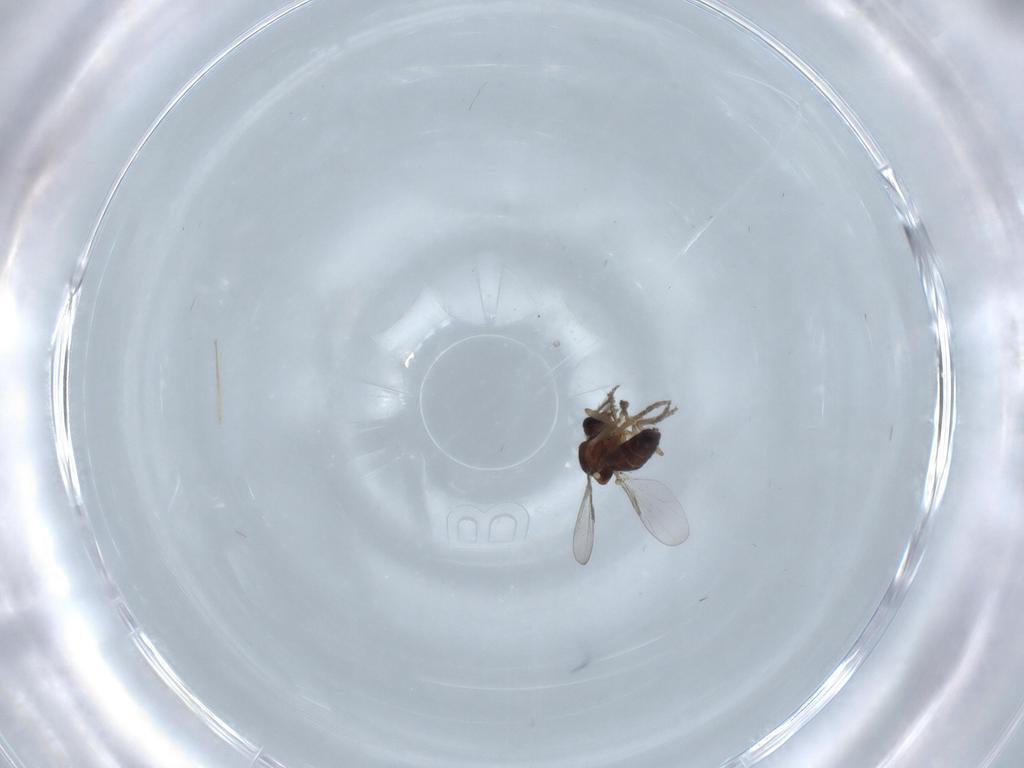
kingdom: Animalia
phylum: Arthropoda
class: Insecta
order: Diptera
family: Ceratopogonidae
